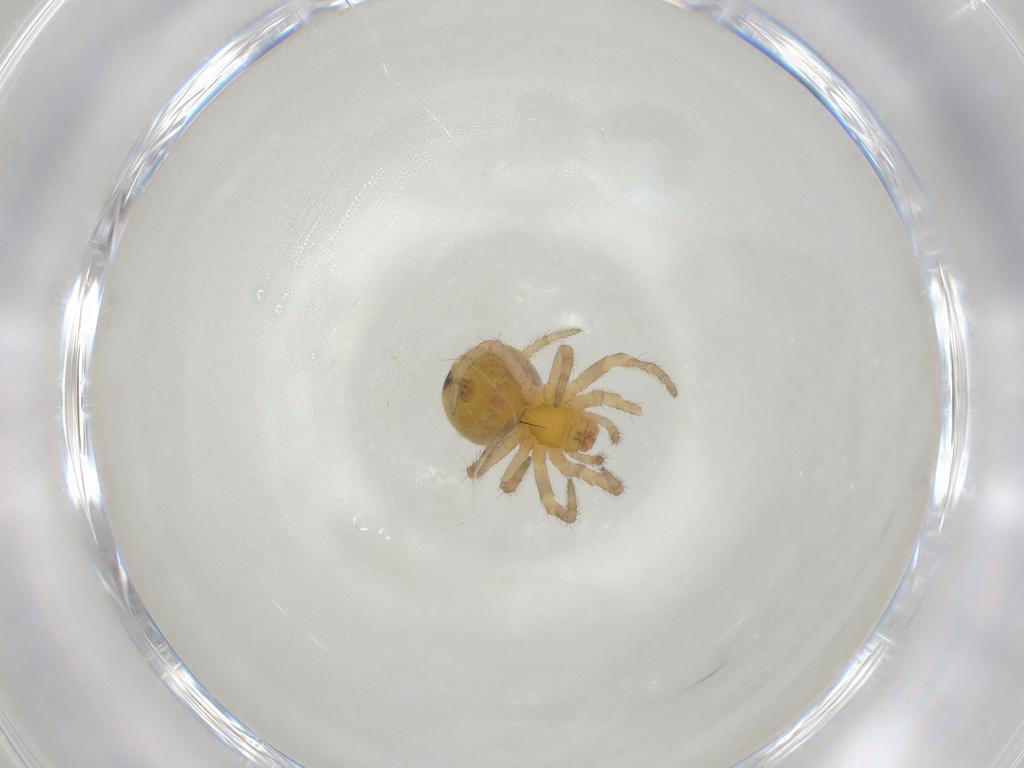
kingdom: Animalia
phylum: Arthropoda
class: Arachnida
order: Araneae
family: Araneidae
